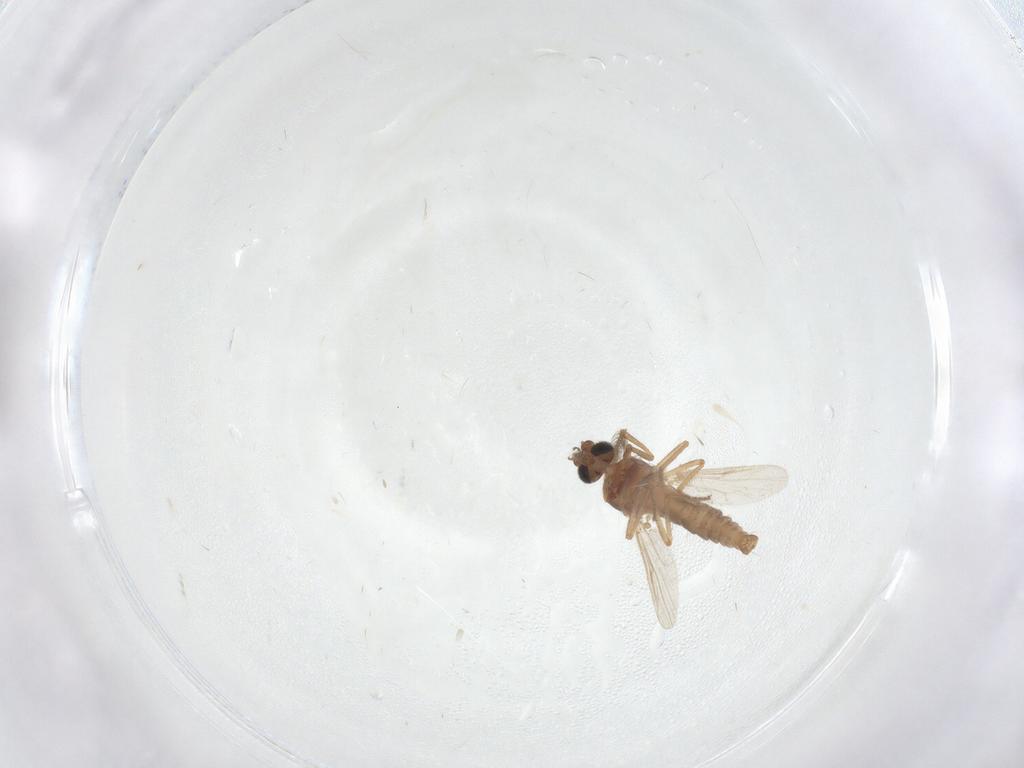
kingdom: Animalia
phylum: Arthropoda
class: Insecta
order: Diptera
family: Ceratopogonidae
